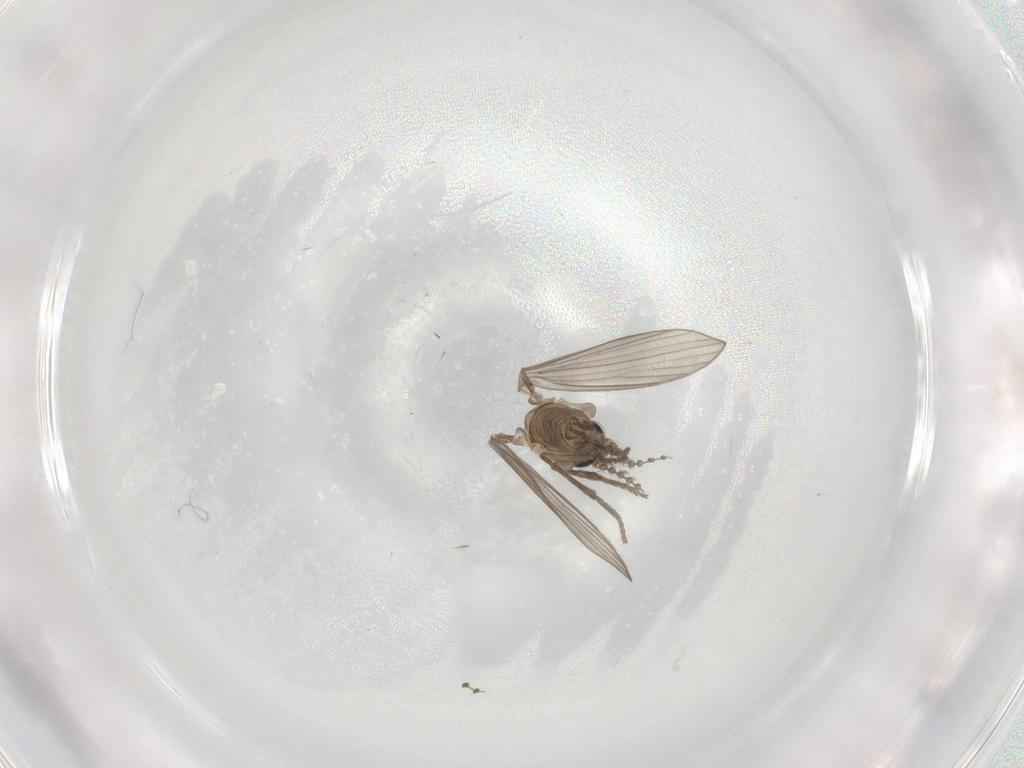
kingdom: Animalia
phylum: Arthropoda
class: Insecta
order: Diptera
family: Psychodidae
